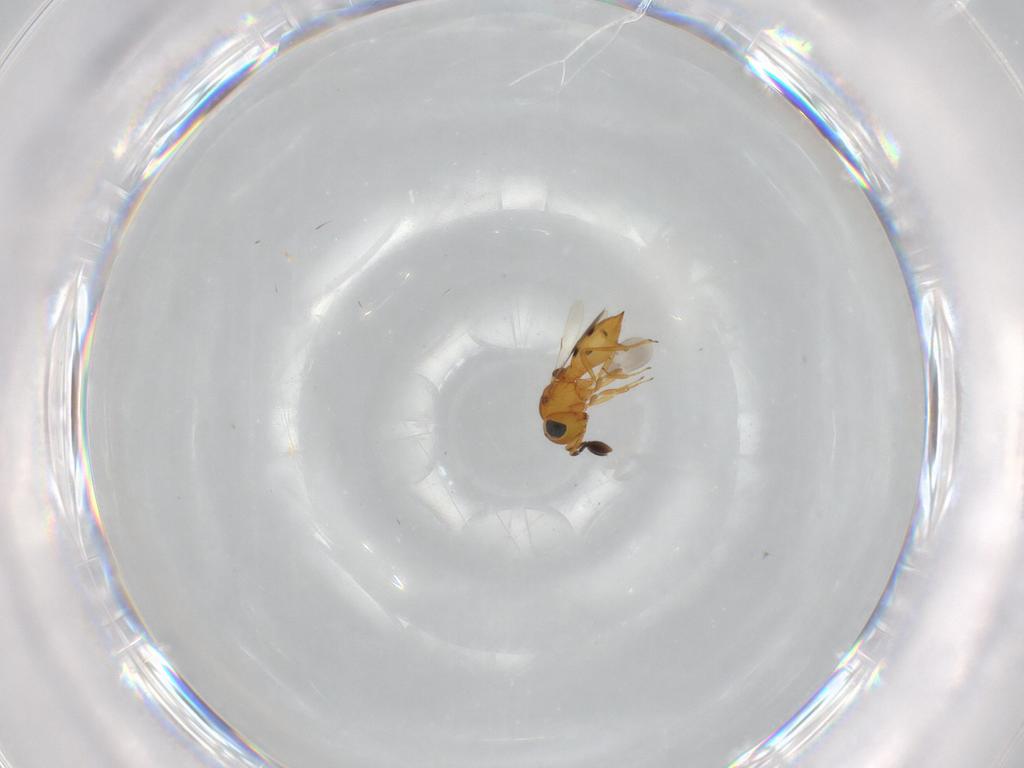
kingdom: Animalia
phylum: Arthropoda
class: Insecta
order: Hymenoptera
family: Scelionidae
